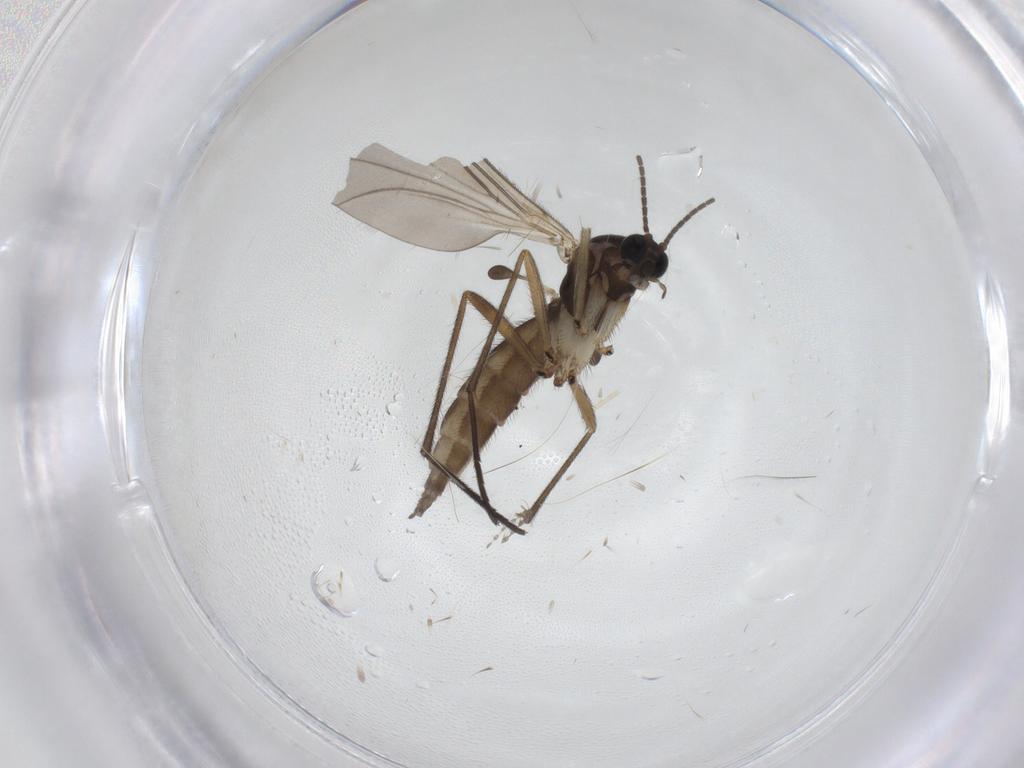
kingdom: Animalia
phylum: Arthropoda
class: Insecta
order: Diptera
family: Sciaridae
